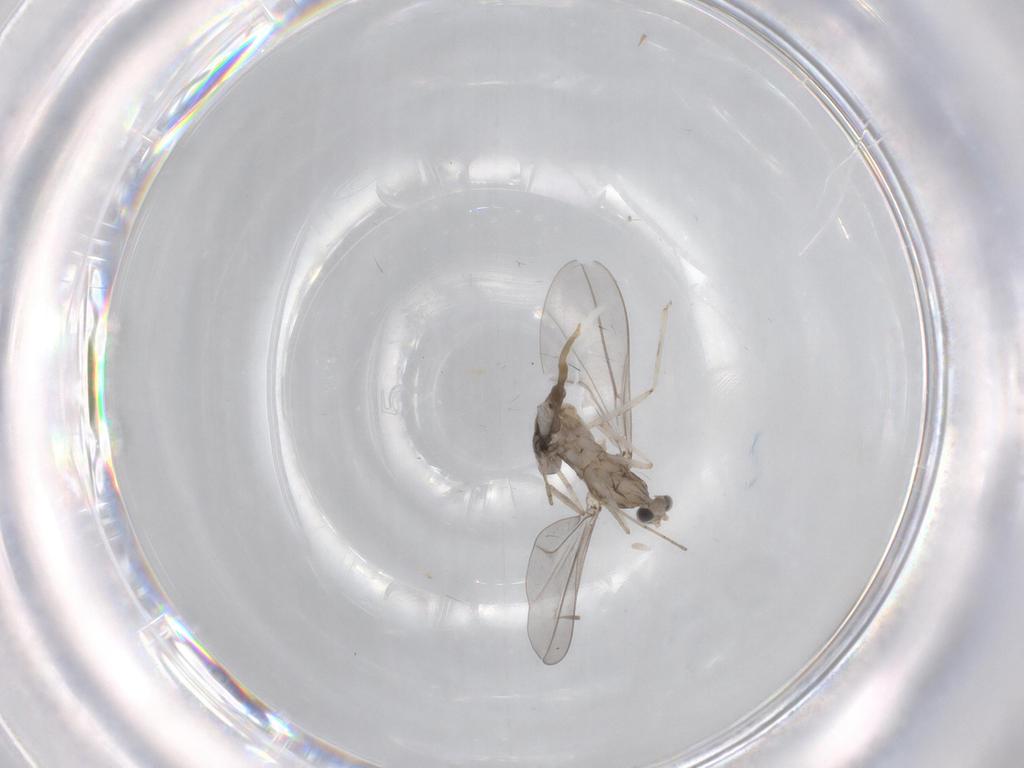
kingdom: Animalia
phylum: Arthropoda
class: Insecta
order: Diptera
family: Cecidomyiidae
